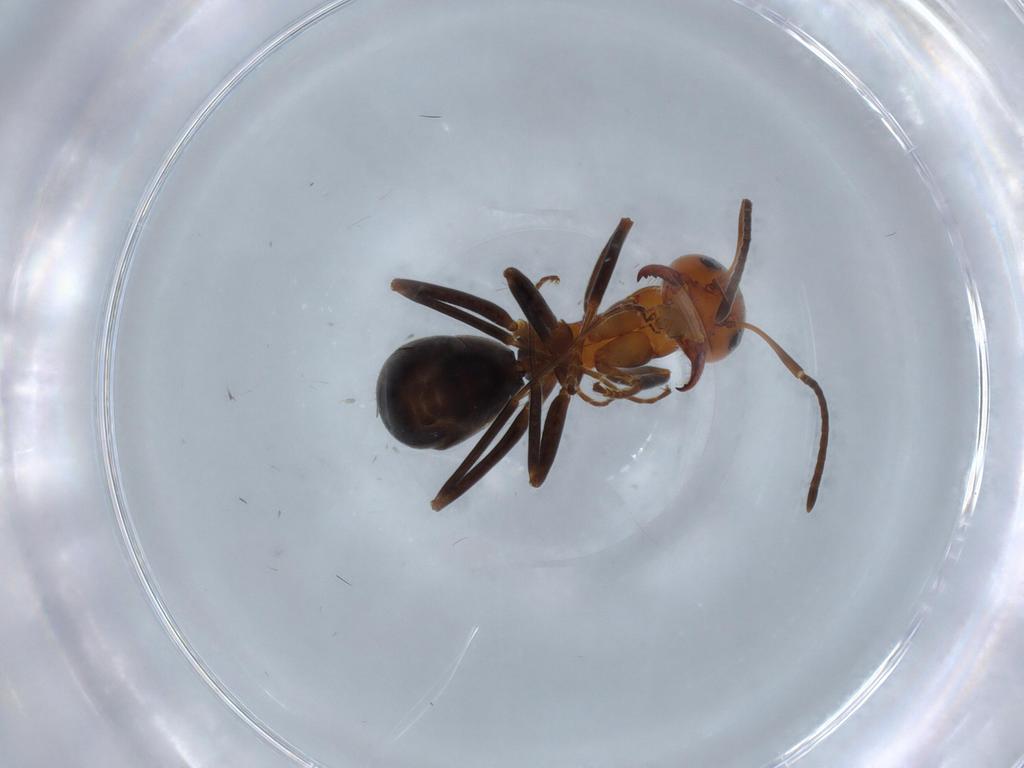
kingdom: Animalia
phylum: Arthropoda
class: Insecta
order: Hymenoptera
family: Formicidae
